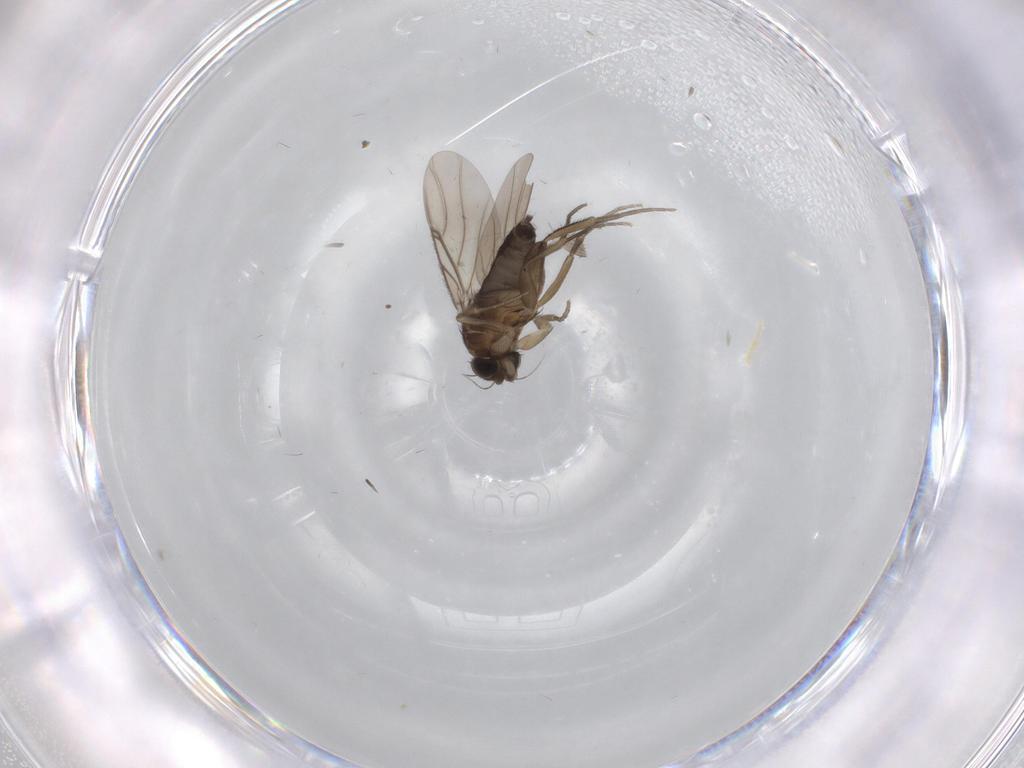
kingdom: Animalia
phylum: Arthropoda
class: Insecta
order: Diptera
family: Phoridae
